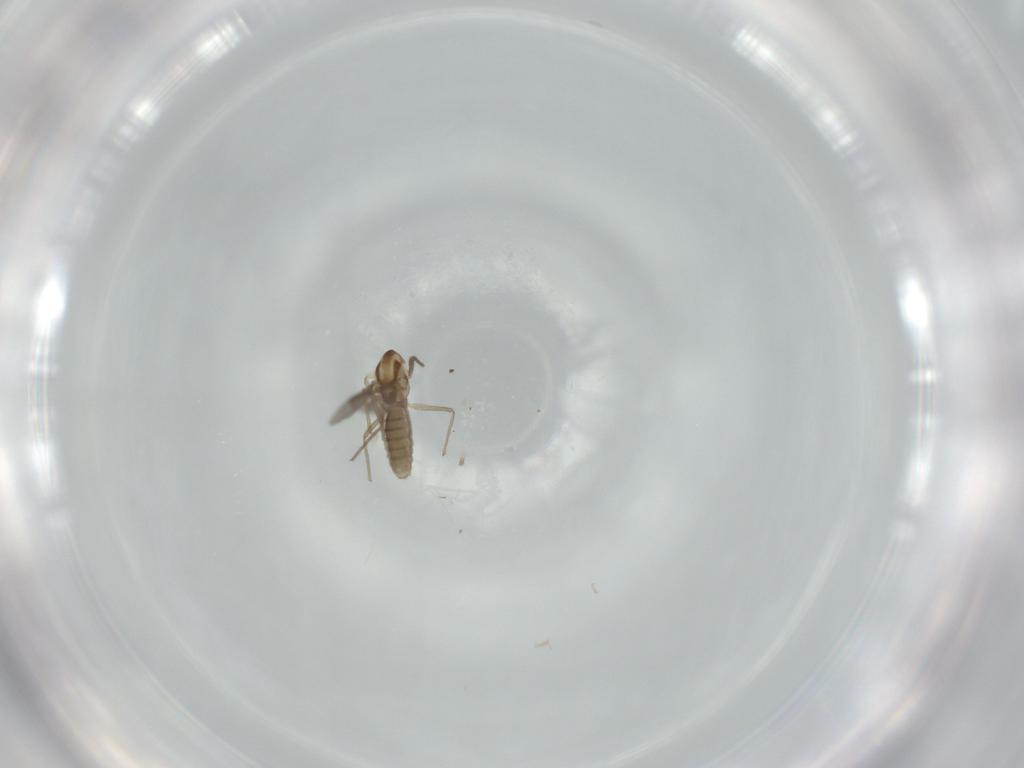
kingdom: Animalia
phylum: Arthropoda
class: Insecta
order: Diptera
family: Chironomidae
